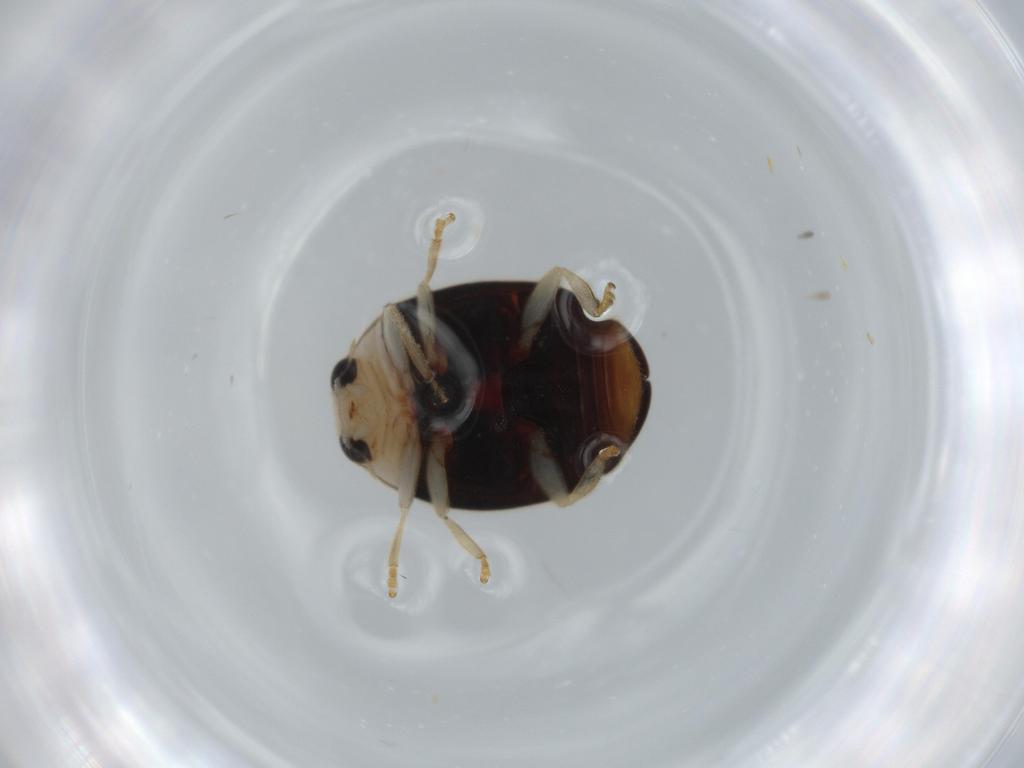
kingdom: Animalia
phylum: Arthropoda
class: Insecta
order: Coleoptera
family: Coccinellidae
